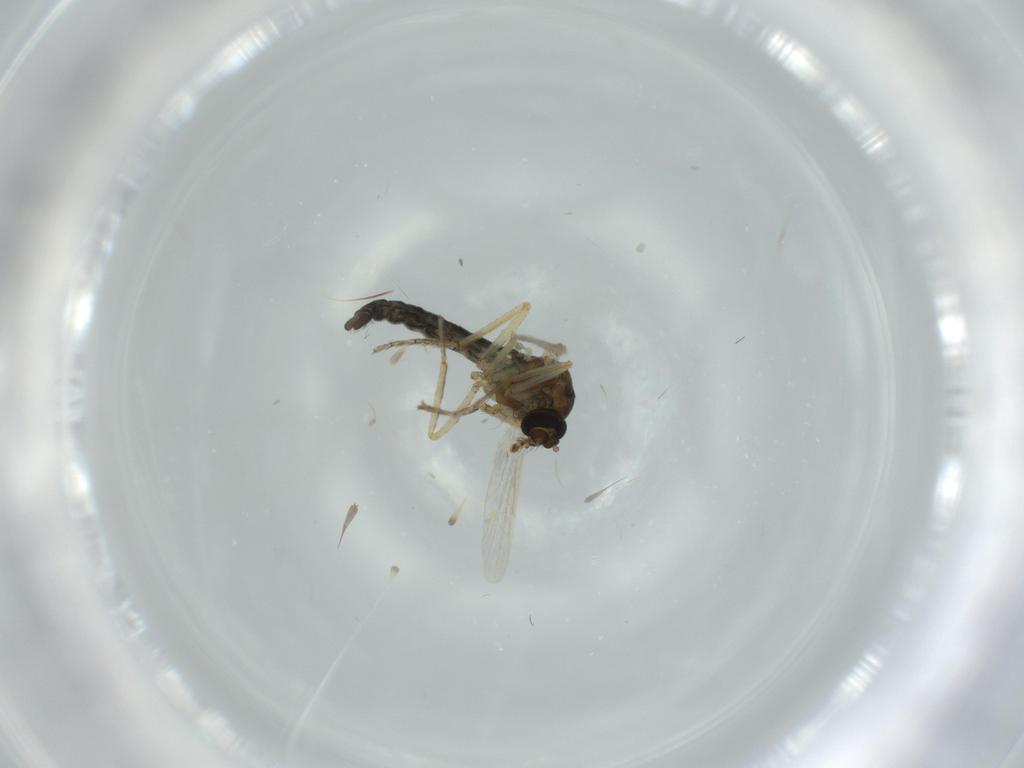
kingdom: Animalia
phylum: Arthropoda
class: Insecta
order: Diptera
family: Ceratopogonidae
